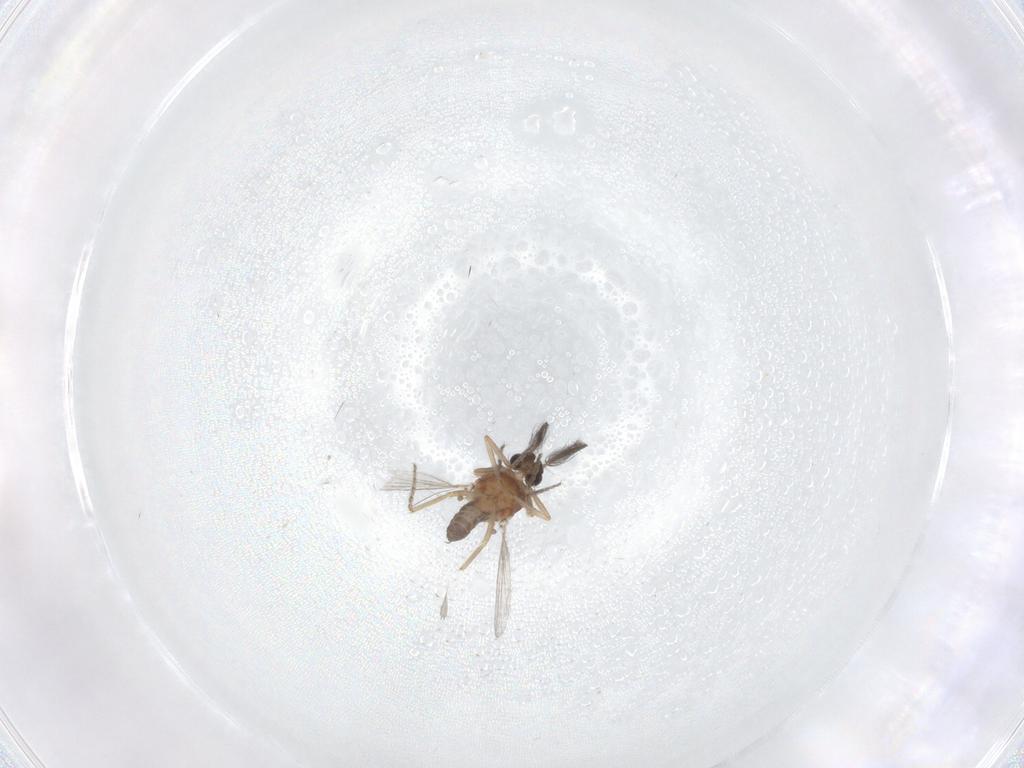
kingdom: Animalia
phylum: Arthropoda
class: Insecta
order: Diptera
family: Ceratopogonidae
